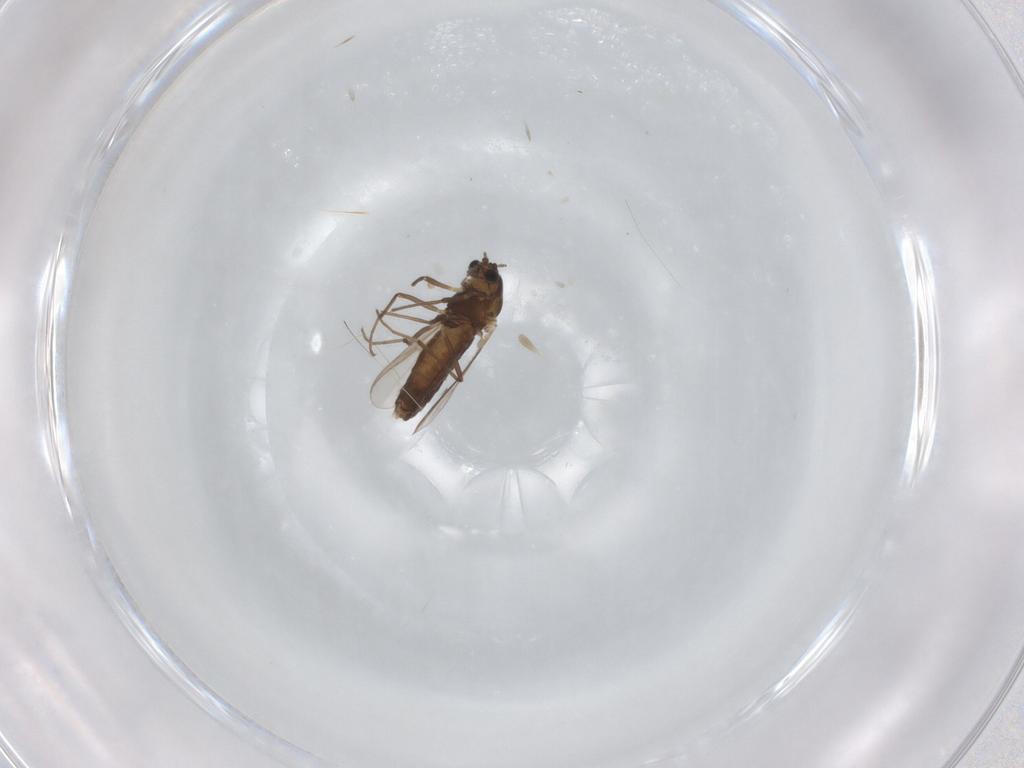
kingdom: Animalia
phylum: Arthropoda
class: Insecta
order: Diptera
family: Chironomidae
